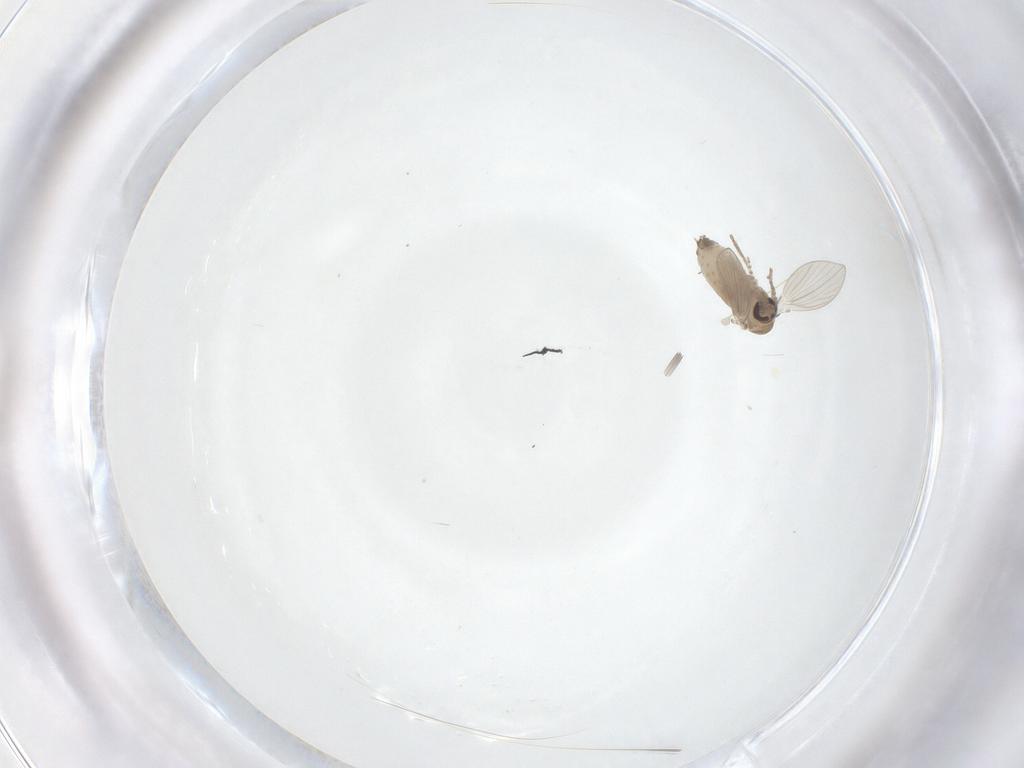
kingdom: Animalia
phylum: Arthropoda
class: Insecta
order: Diptera
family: Psychodidae
